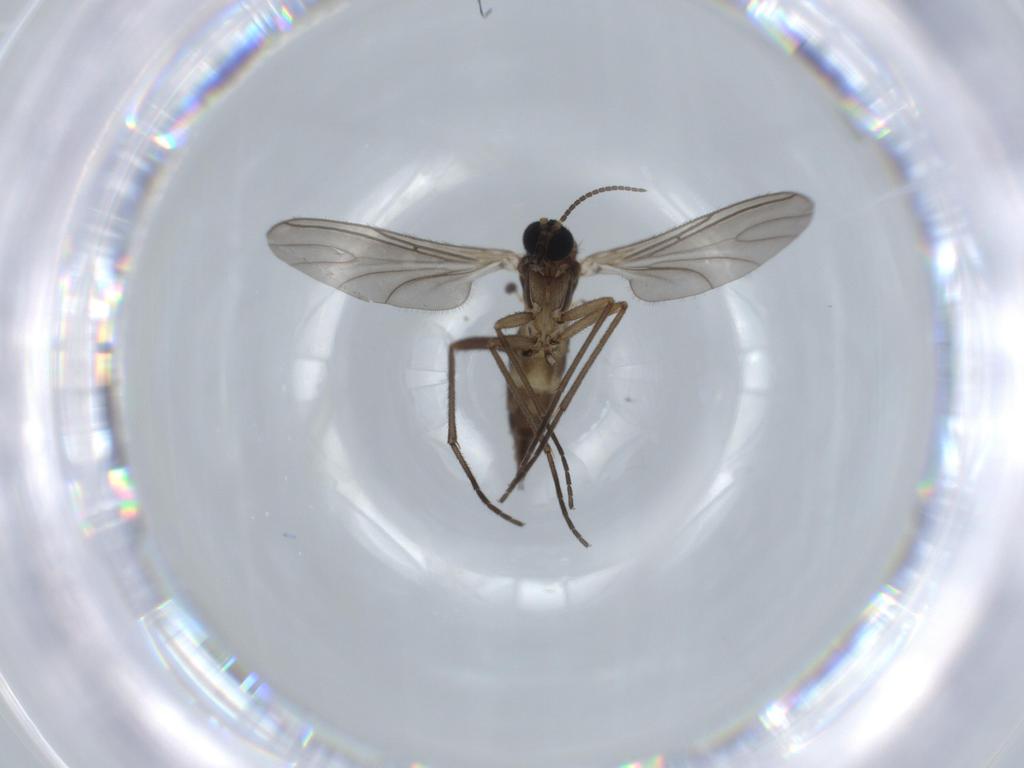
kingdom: Animalia
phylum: Arthropoda
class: Insecta
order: Diptera
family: Sciaridae
